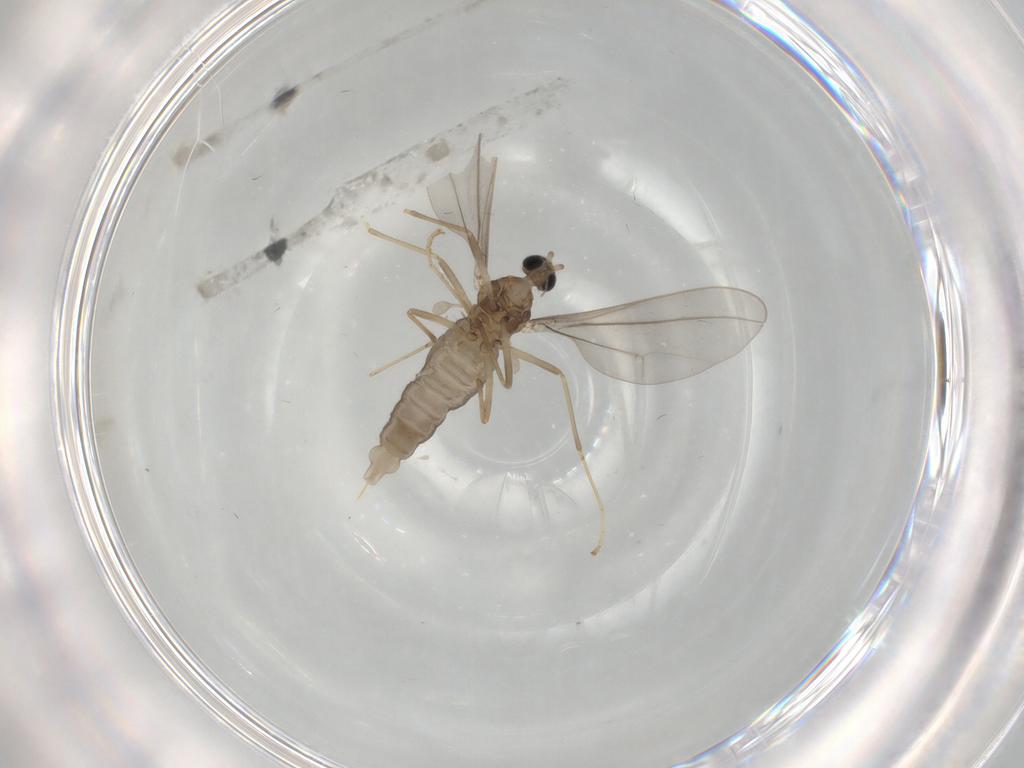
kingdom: Animalia
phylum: Arthropoda
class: Insecta
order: Diptera
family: Cecidomyiidae
